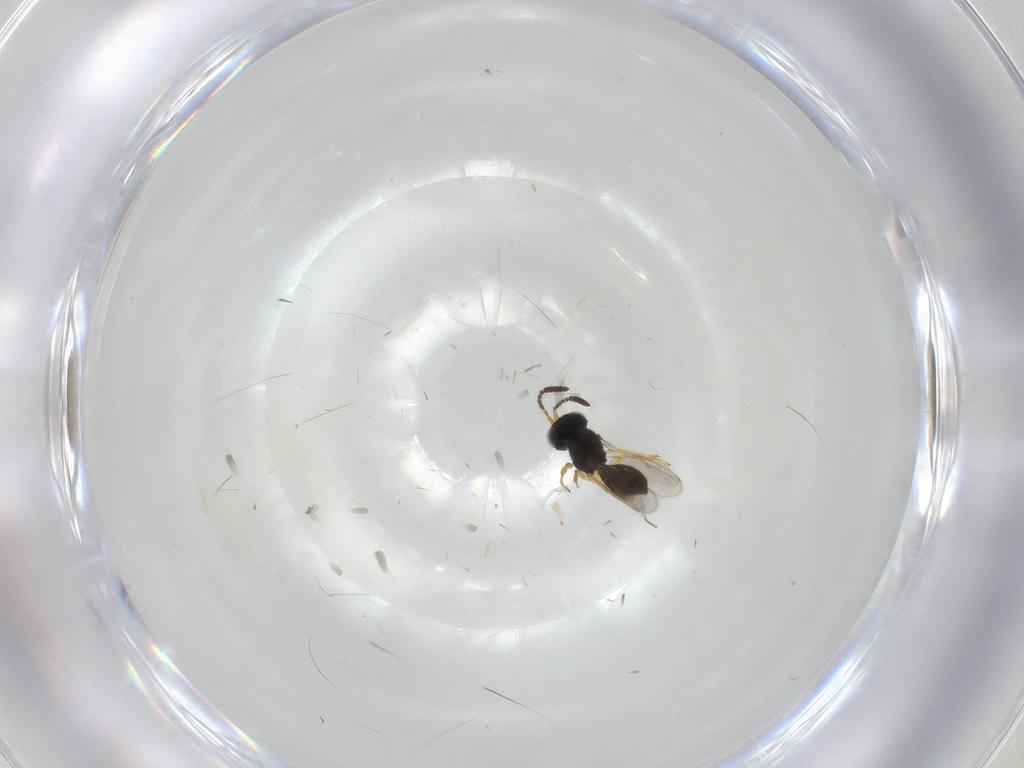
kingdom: Animalia
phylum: Arthropoda
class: Insecta
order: Hymenoptera
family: Scelionidae
